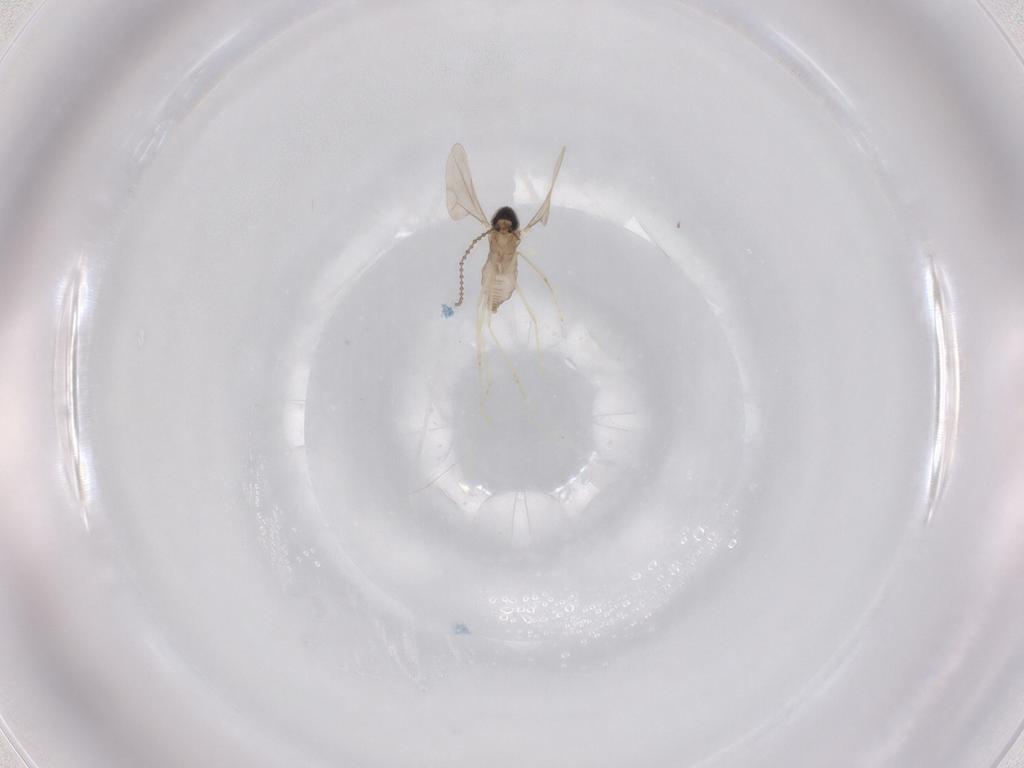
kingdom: Animalia
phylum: Arthropoda
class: Insecta
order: Diptera
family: Cecidomyiidae
